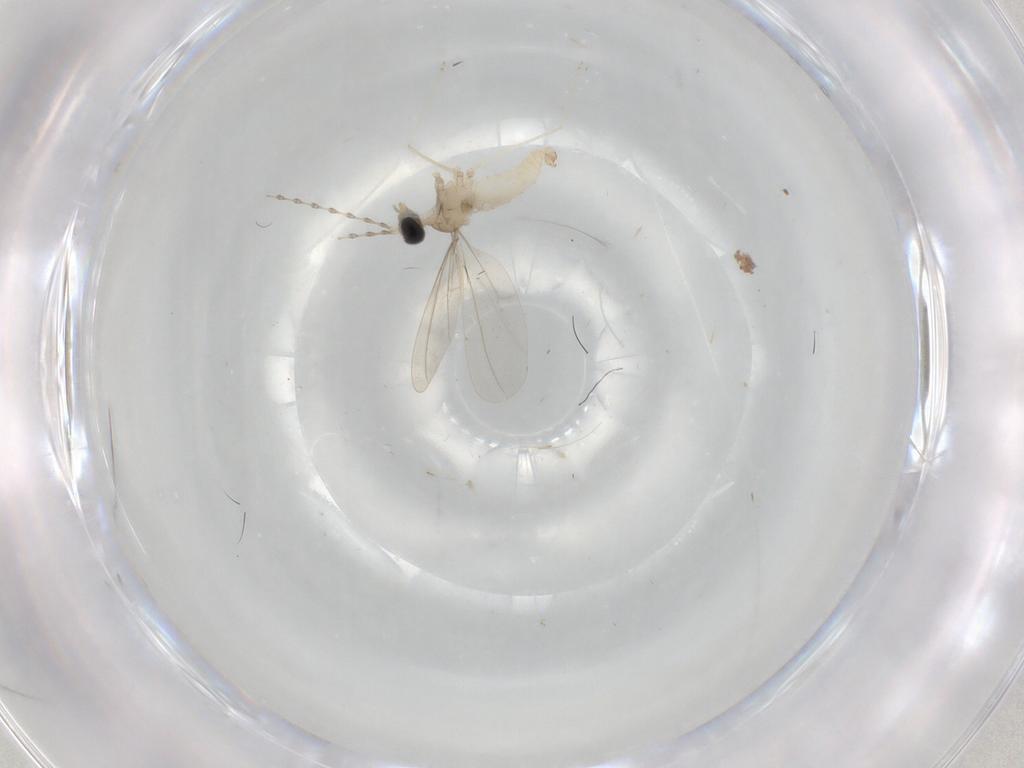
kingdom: Animalia
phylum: Arthropoda
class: Insecta
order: Diptera
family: Cecidomyiidae
